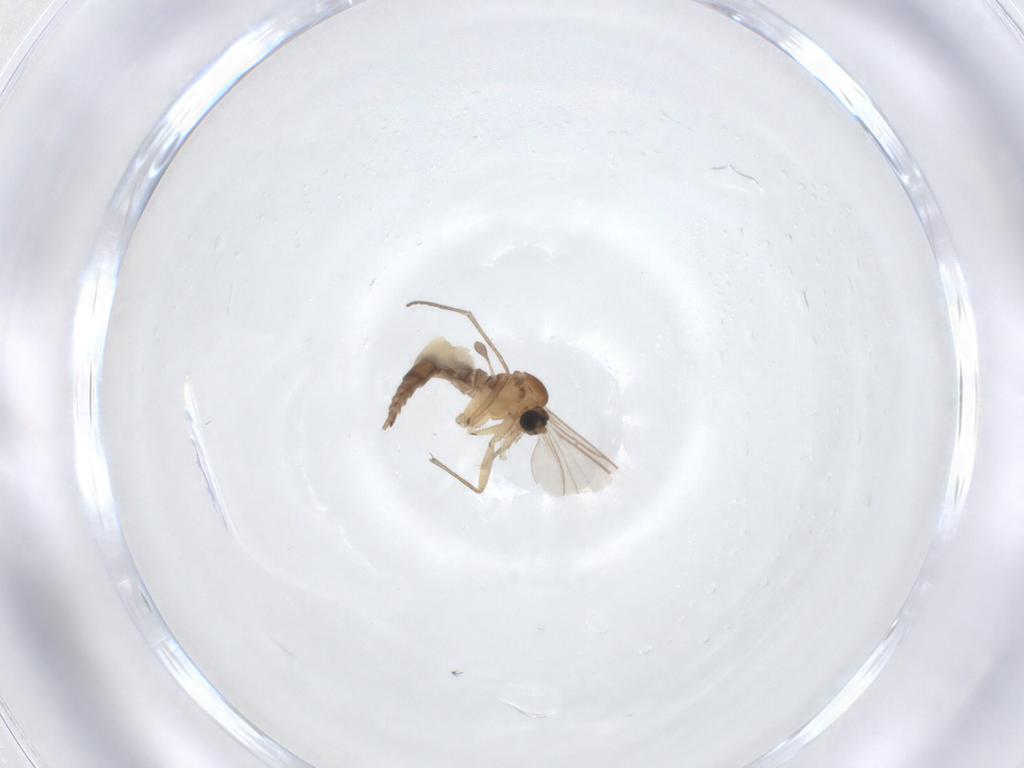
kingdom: Animalia
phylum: Arthropoda
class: Insecta
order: Diptera
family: Sciaridae
